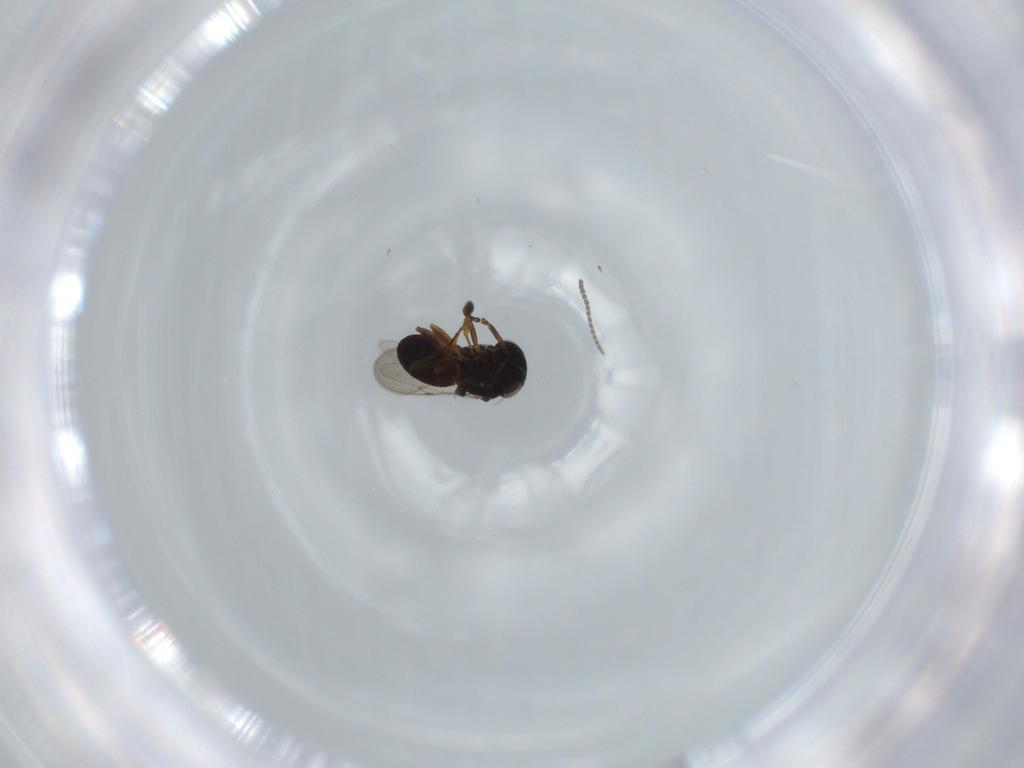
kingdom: Animalia
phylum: Arthropoda
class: Insecta
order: Coleoptera
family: Curculionidae
